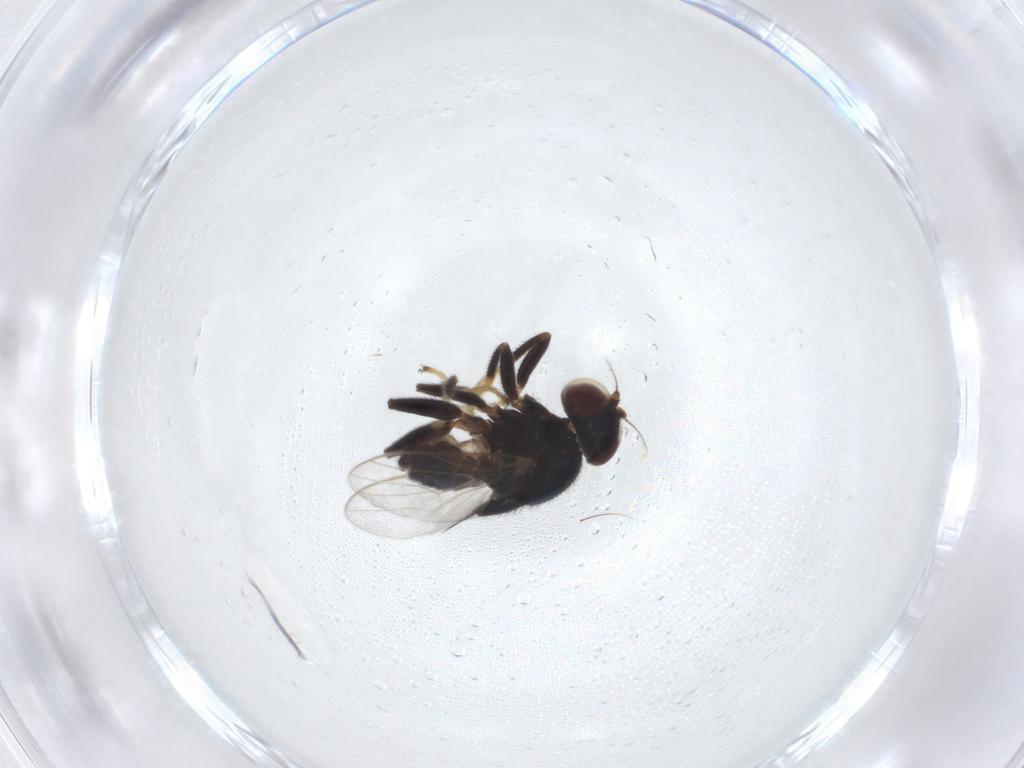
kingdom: Animalia
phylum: Arthropoda
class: Insecta
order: Diptera
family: Chloropidae
